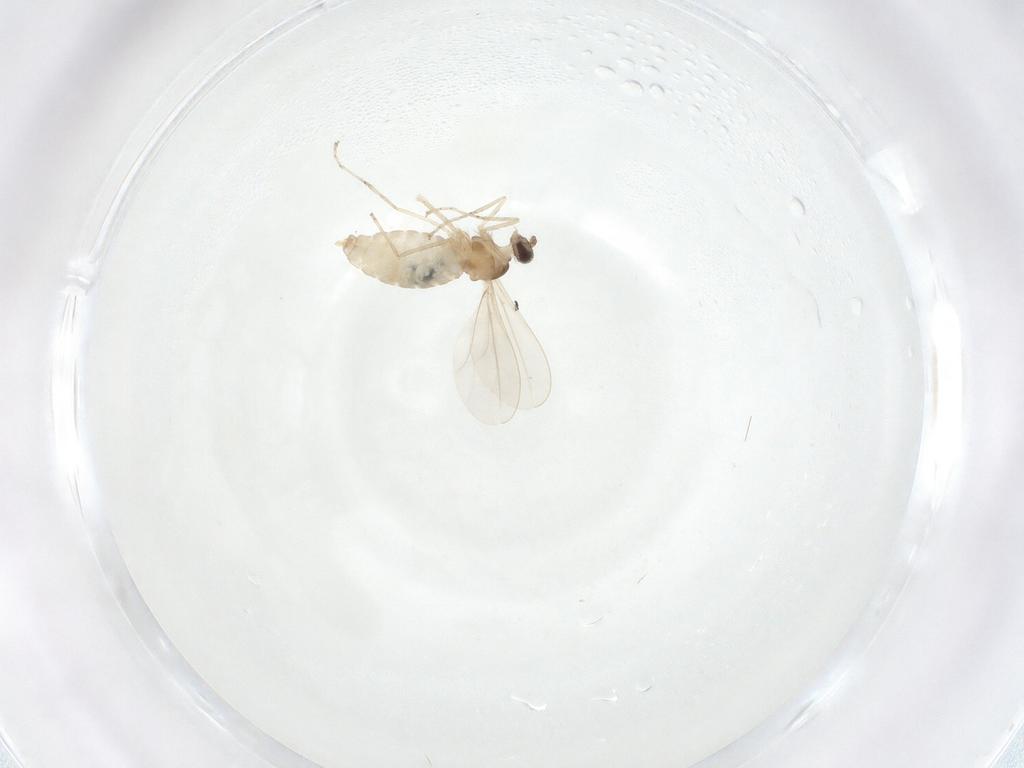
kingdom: Animalia
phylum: Arthropoda
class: Insecta
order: Diptera
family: Cecidomyiidae
